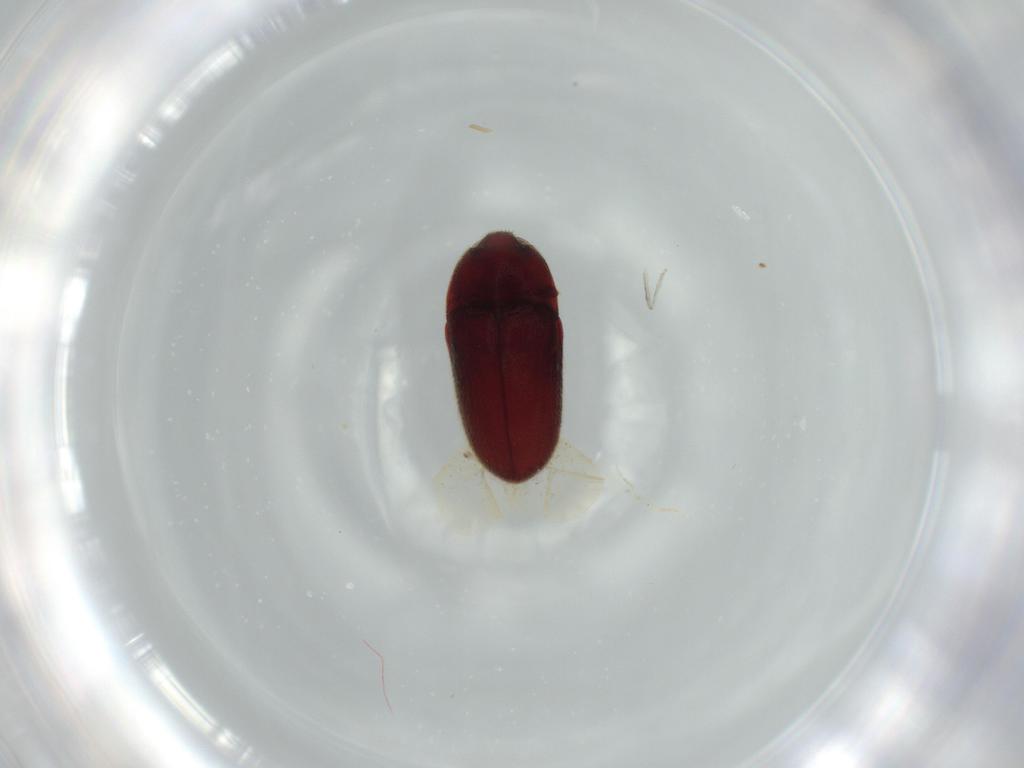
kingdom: Animalia
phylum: Arthropoda
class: Insecta
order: Coleoptera
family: Throscidae
